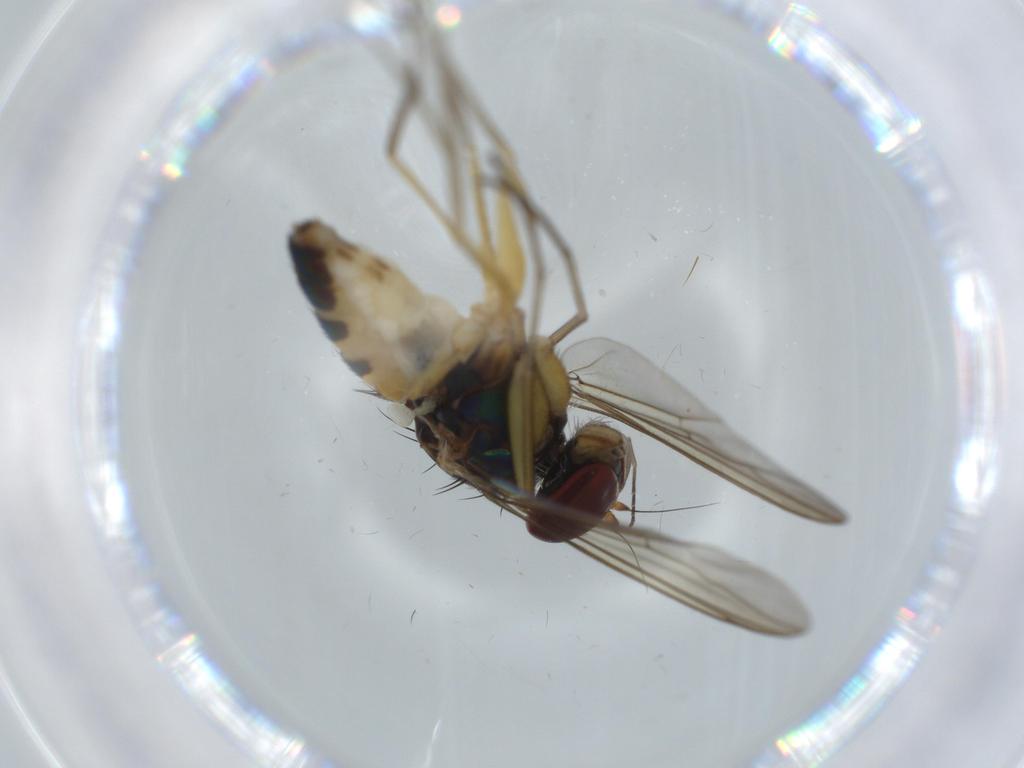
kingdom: Animalia
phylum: Arthropoda
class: Insecta
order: Diptera
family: Dolichopodidae
